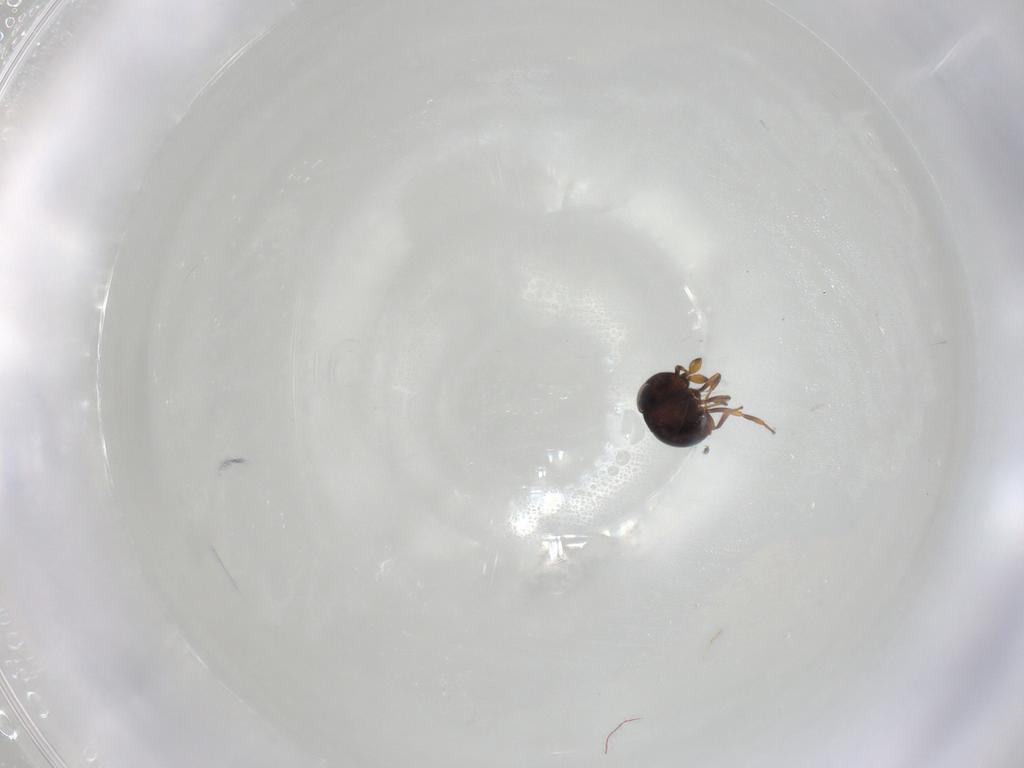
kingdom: Animalia
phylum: Arthropoda
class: Insecta
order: Hymenoptera
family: Scelionidae
